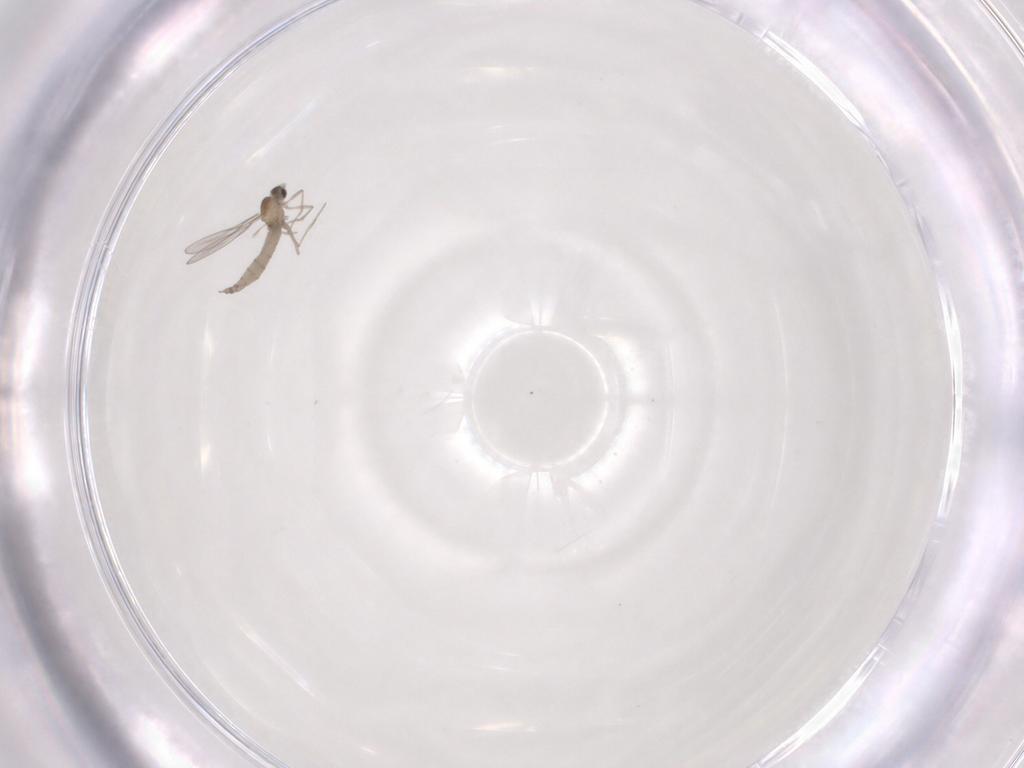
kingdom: Animalia
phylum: Arthropoda
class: Insecta
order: Diptera
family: Cecidomyiidae
